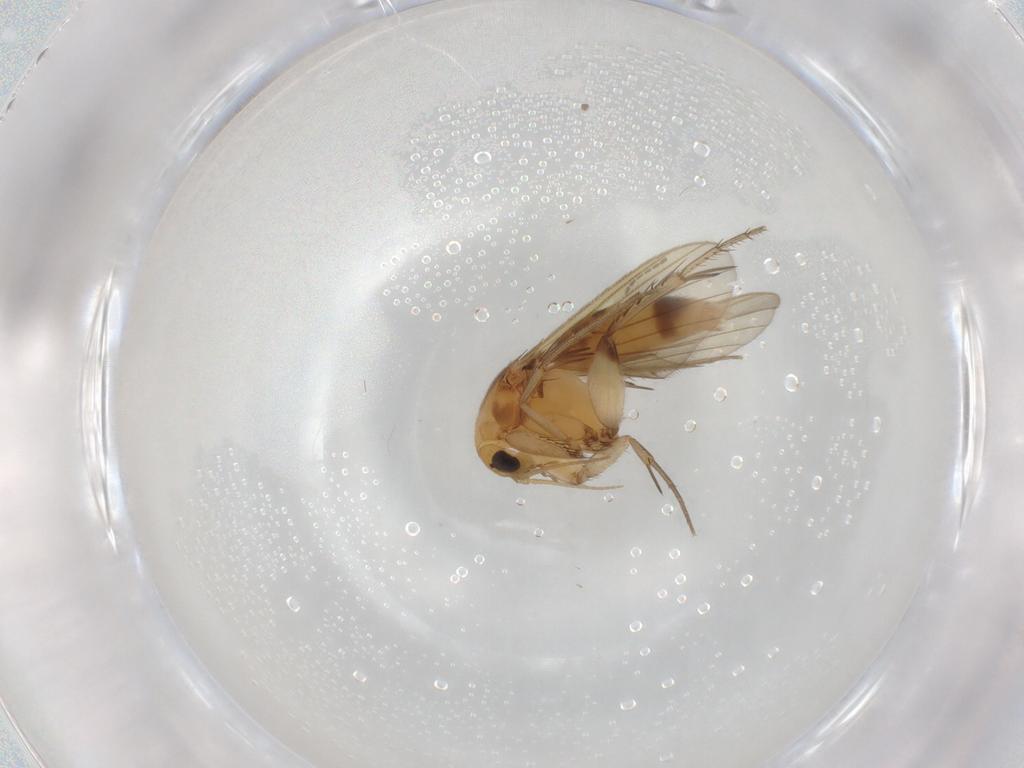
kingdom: Animalia
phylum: Arthropoda
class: Insecta
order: Diptera
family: Mycetophilidae
